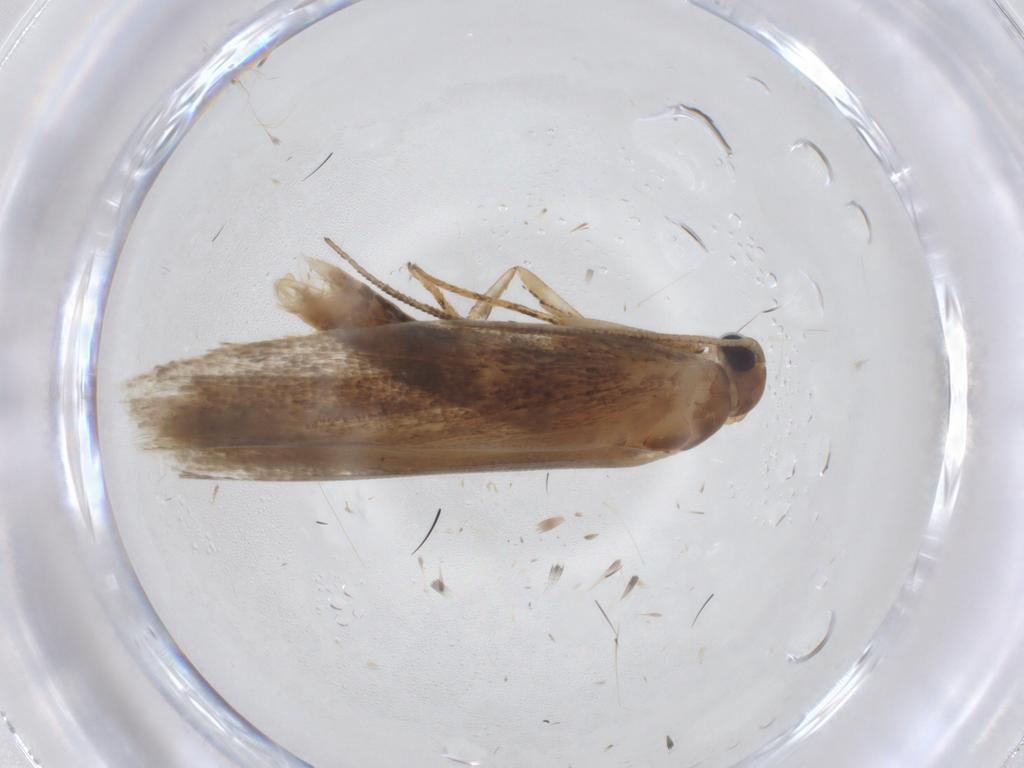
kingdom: Animalia
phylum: Arthropoda
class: Insecta
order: Lepidoptera
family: Gelechiidae
